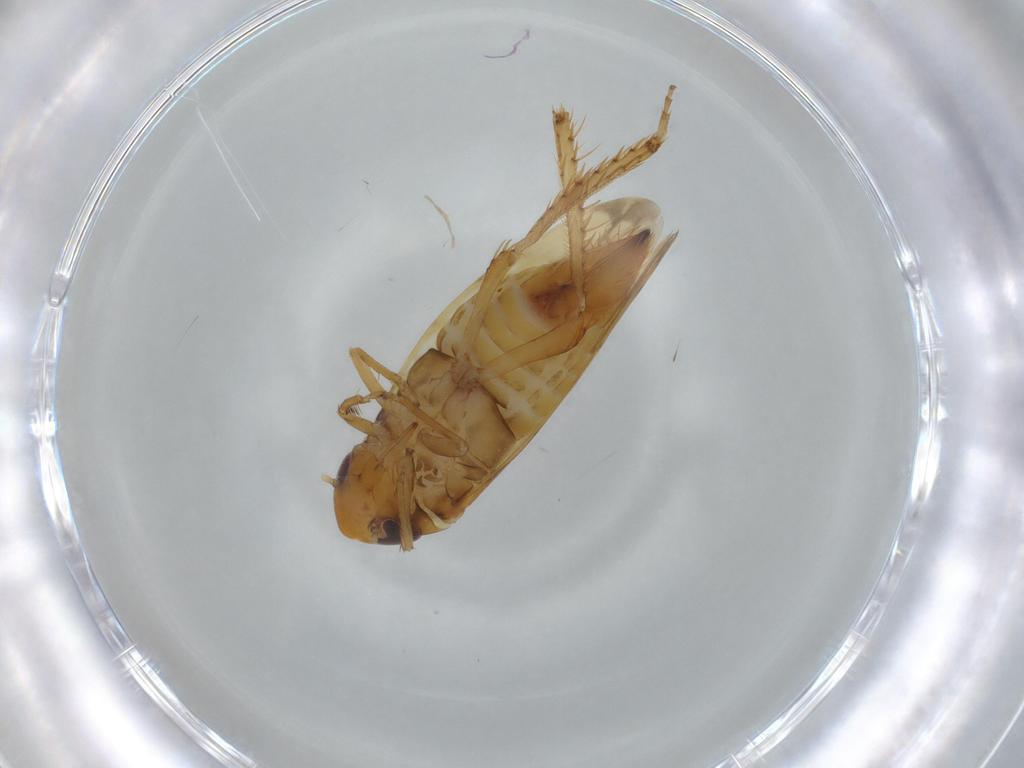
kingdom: Animalia
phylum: Arthropoda
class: Insecta
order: Hemiptera
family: Cicadellidae
